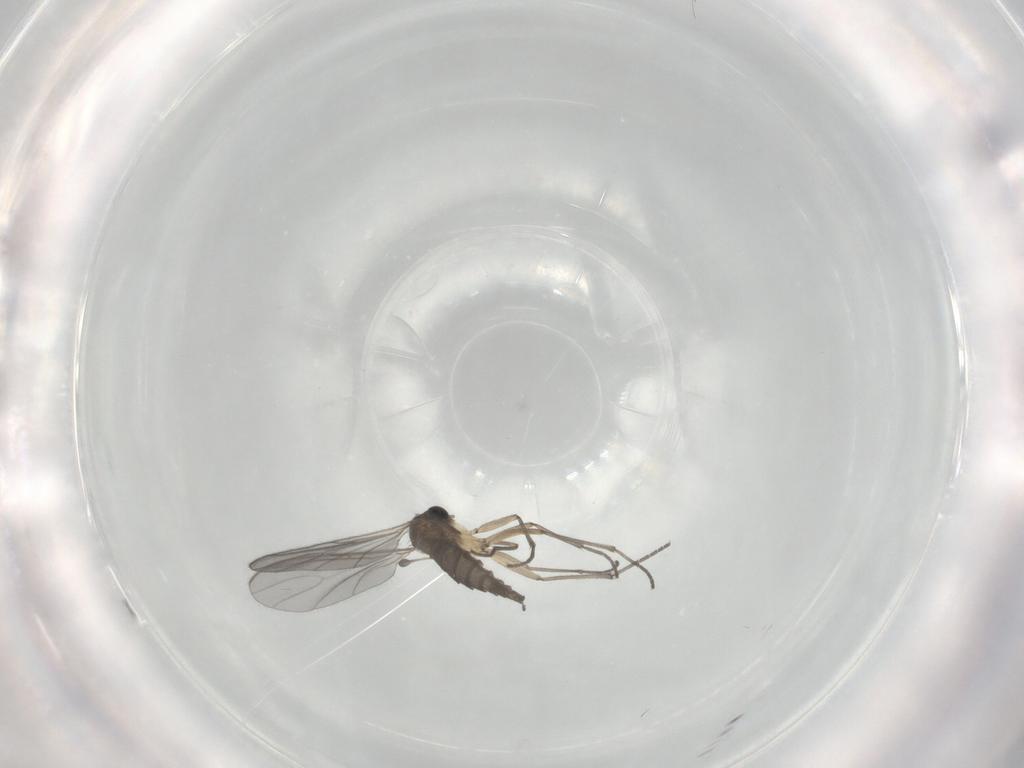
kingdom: Animalia
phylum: Arthropoda
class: Insecta
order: Diptera
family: Sciaridae
